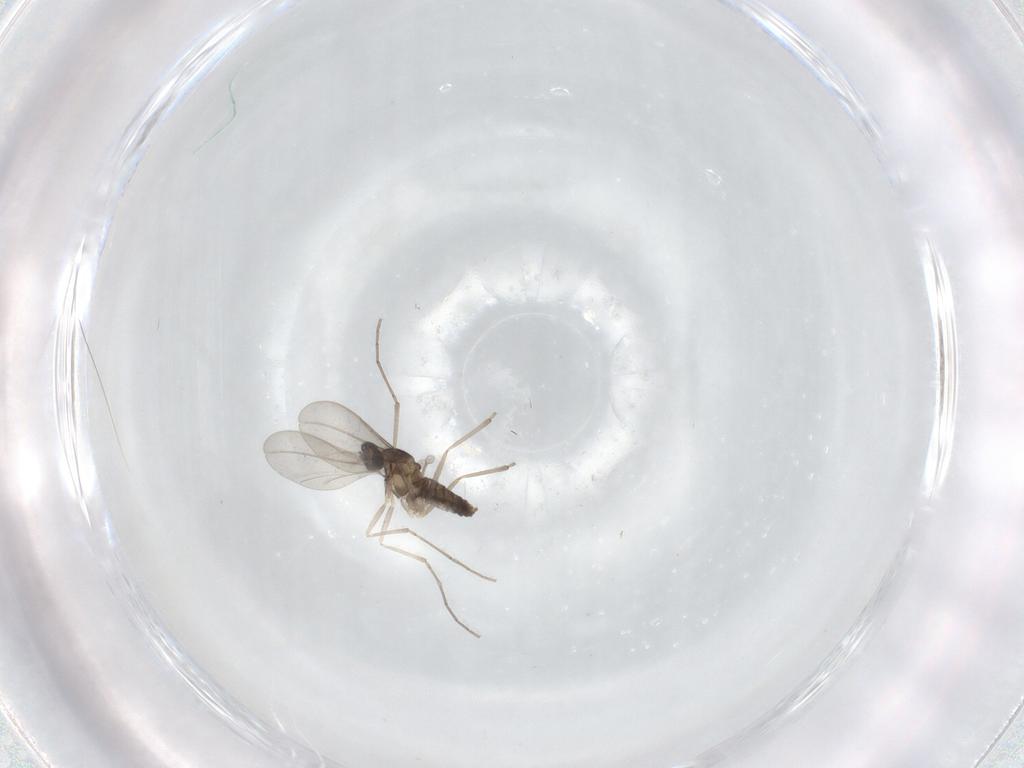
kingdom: Animalia
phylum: Arthropoda
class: Insecta
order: Diptera
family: Cecidomyiidae
